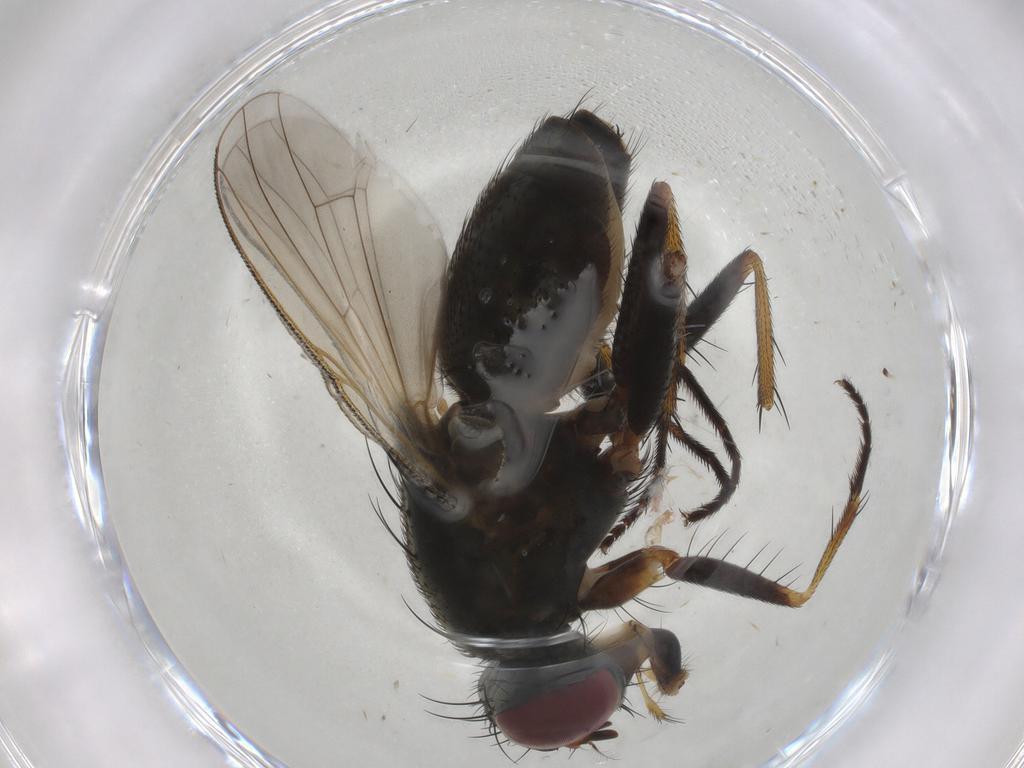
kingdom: Animalia
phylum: Arthropoda
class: Insecta
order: Diptera
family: Muscidae
